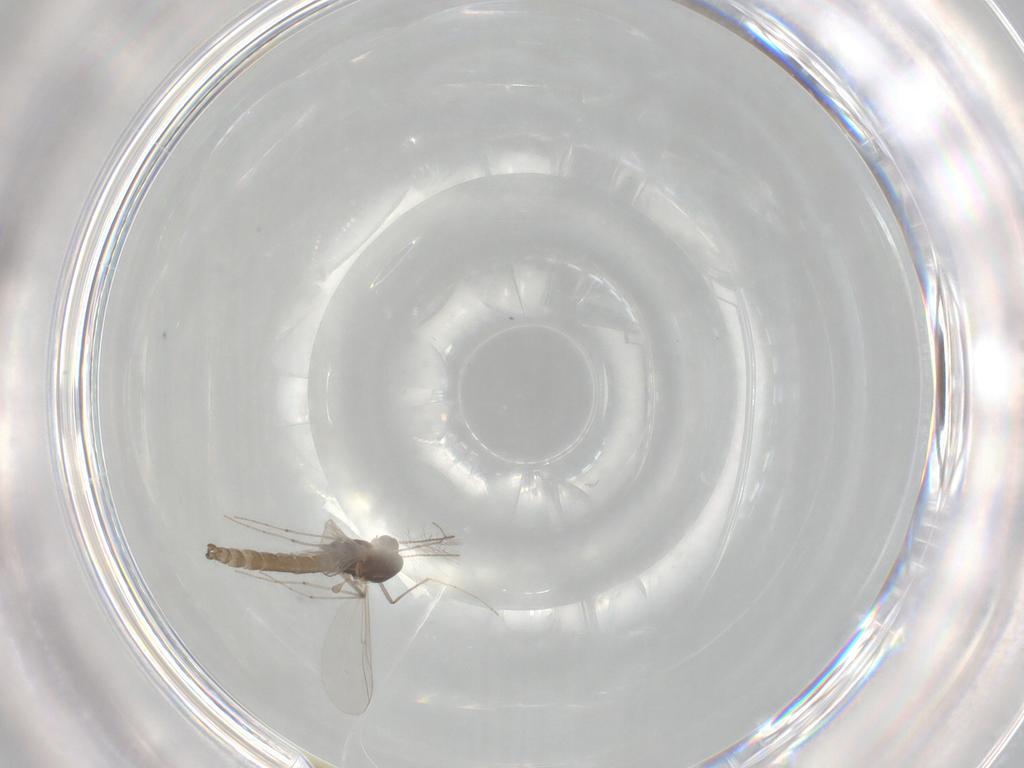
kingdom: Animalia
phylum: Arthropoda
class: Insecta
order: Diptera
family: Chironomidae
